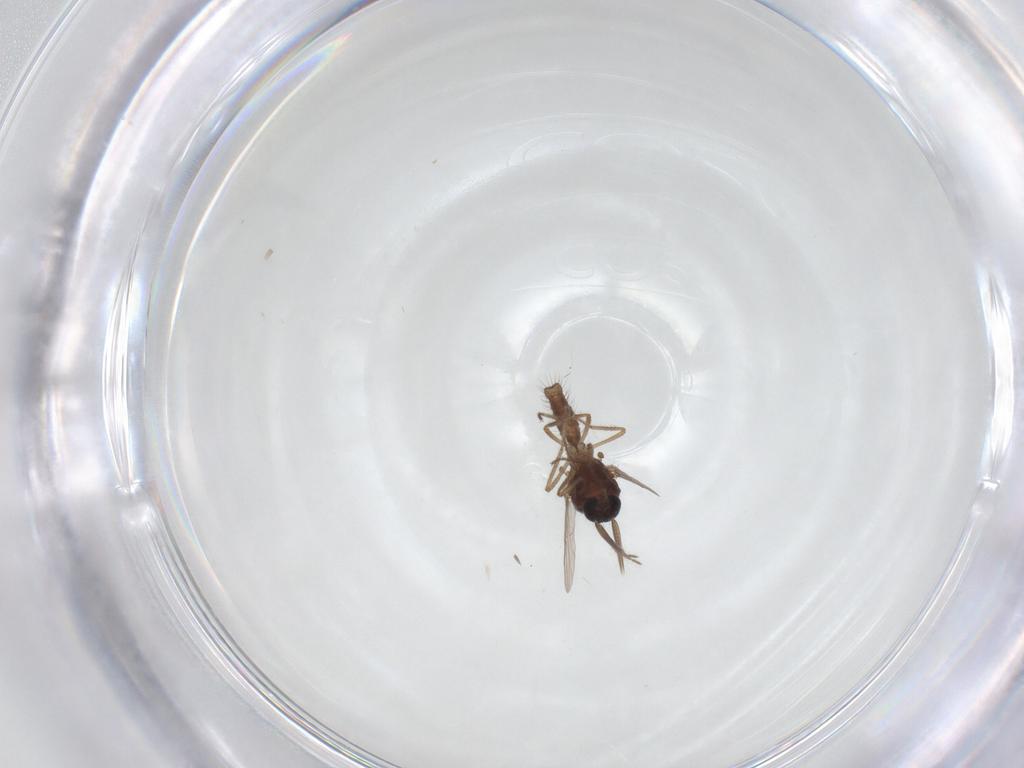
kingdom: Animalia
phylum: Arthropoda
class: Insecta
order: Diptera
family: Ceratopogonidae
